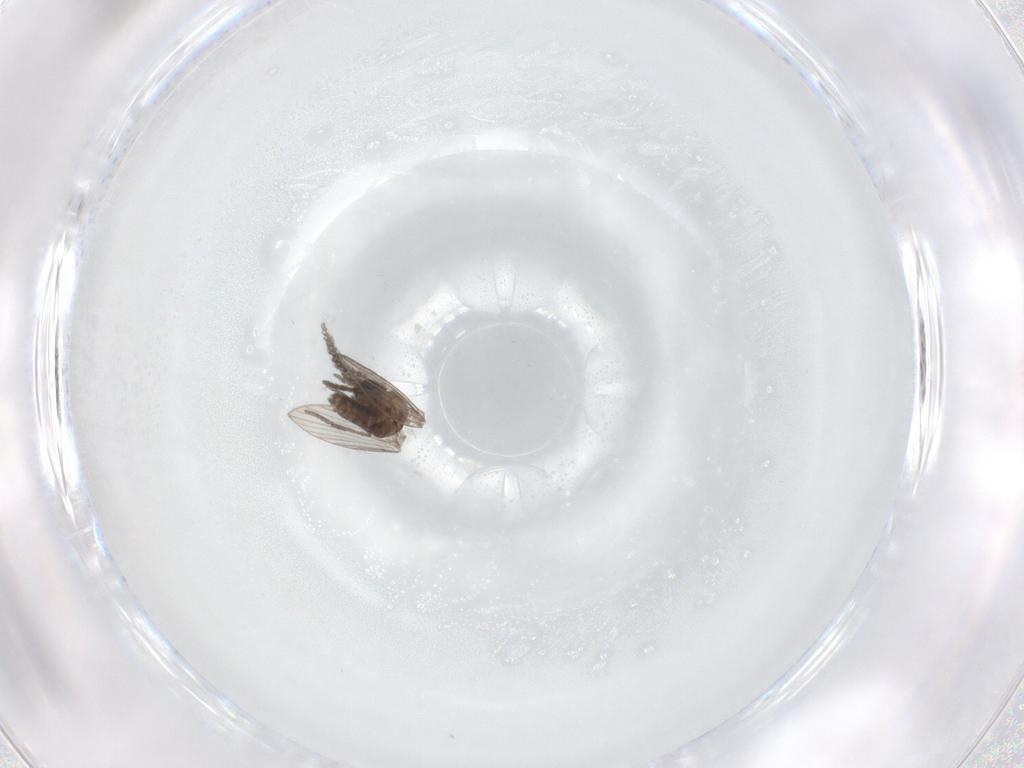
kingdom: Animalia
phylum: Arthropoda
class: Insecta
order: Diptera
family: Psychodidae
